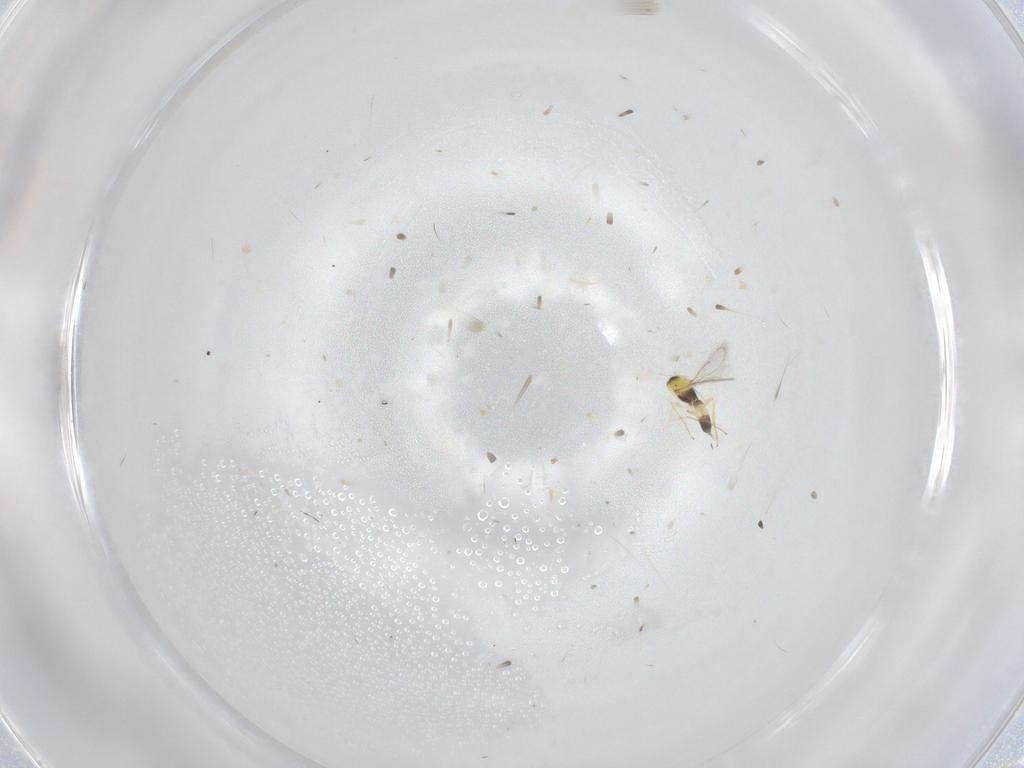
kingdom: Animalia
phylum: Arthropoda
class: Insecta
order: Hymenoptera
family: Eulophidae
